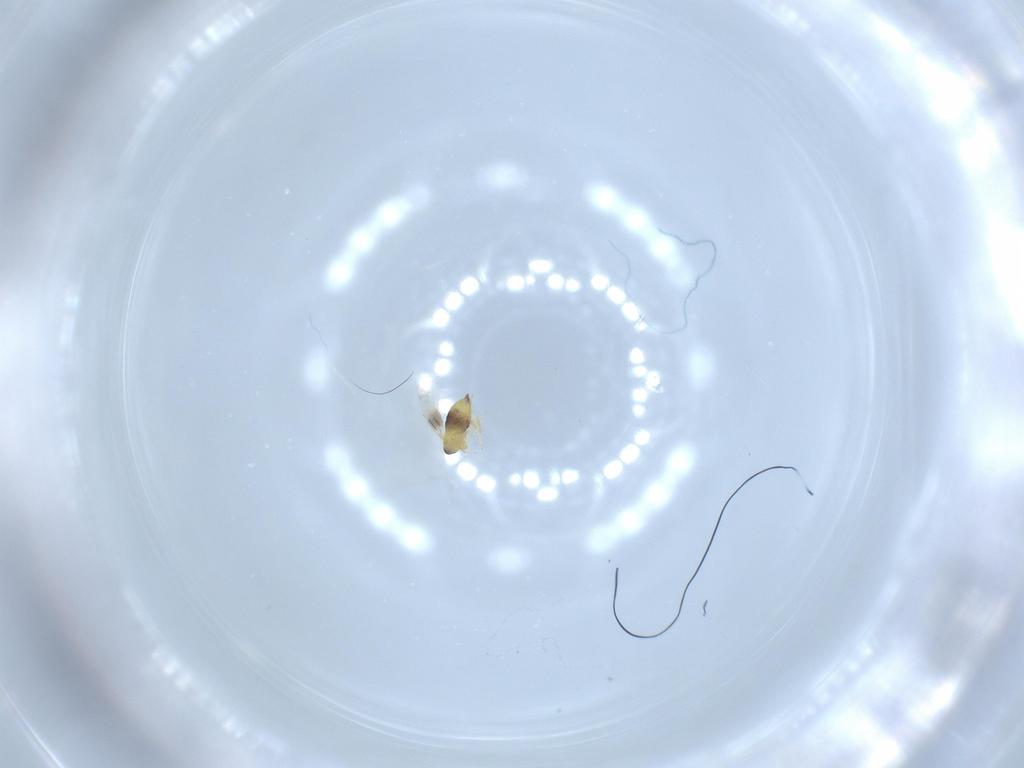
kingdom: Animalia
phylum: Arthropoda
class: Insecta
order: Hymenoptera
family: Signiphoridae
